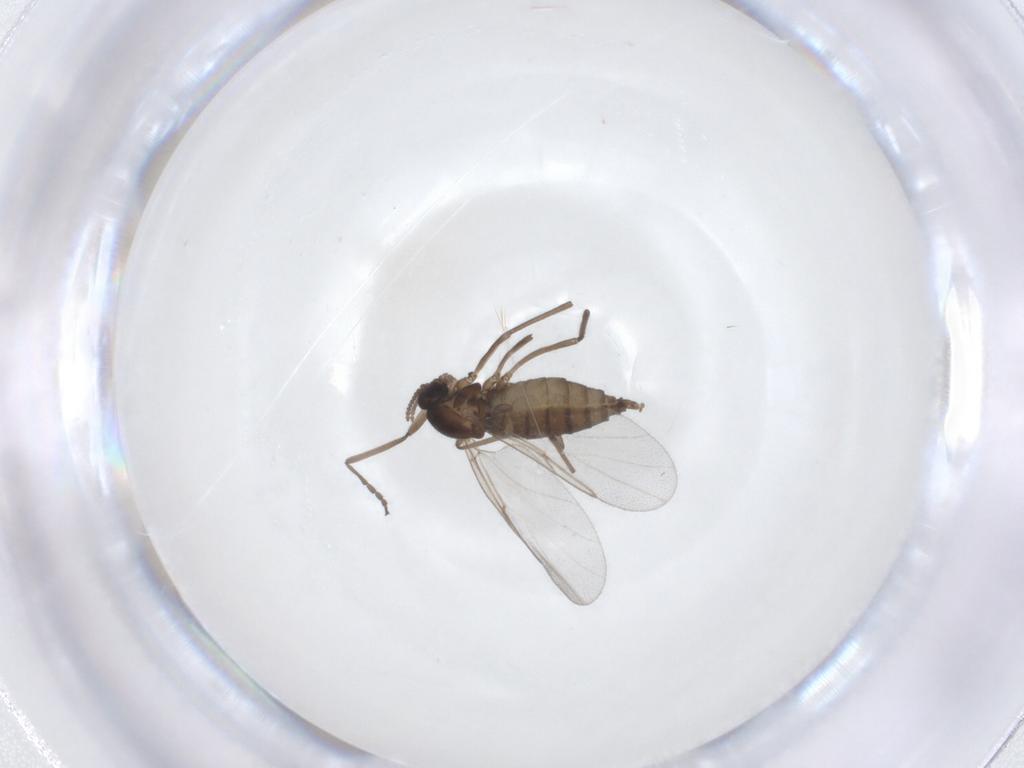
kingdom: Animalia
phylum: Arthropoda
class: Insecta
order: Diptera
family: Cecidomyiidae
